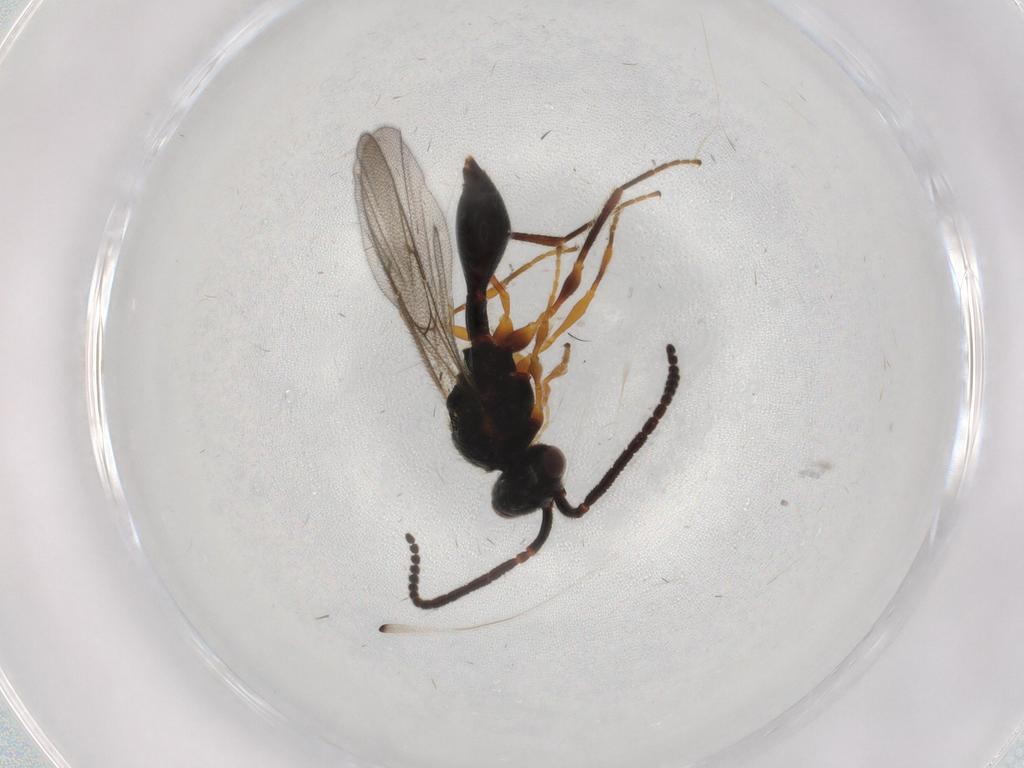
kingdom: Animalia
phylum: Arthropoda
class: Insecta
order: Hymenoptera
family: Diapriidae
